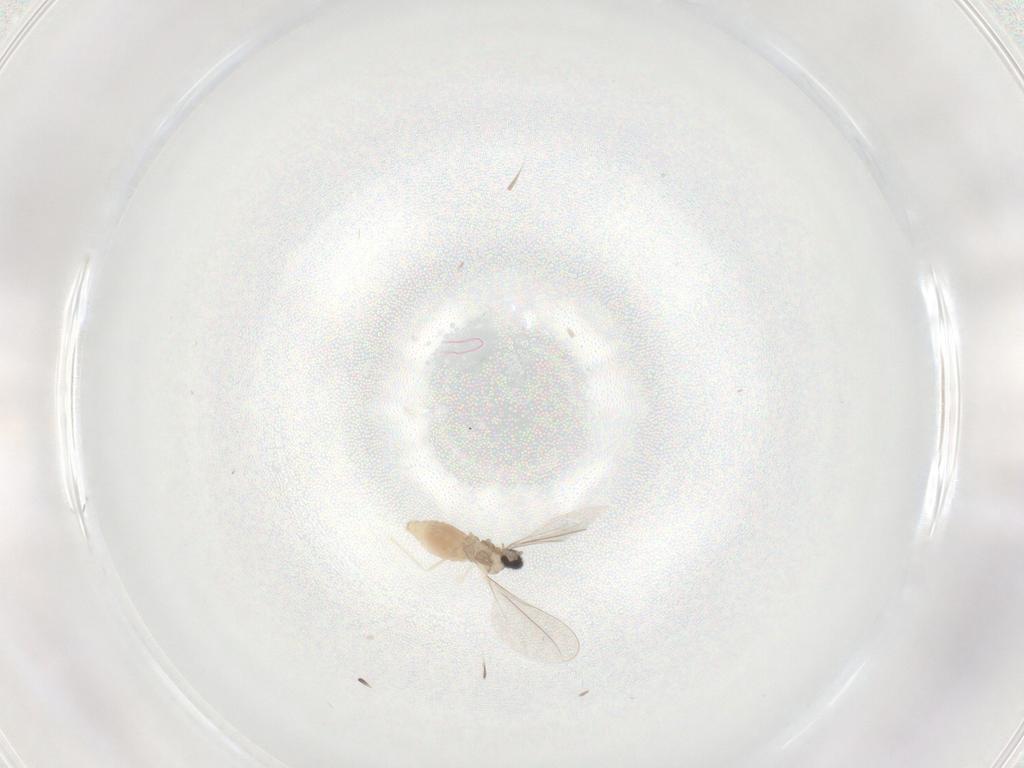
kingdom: Animalia
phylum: Arthropoda
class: Insecta
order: Diptera
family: Cecidomyiidae
